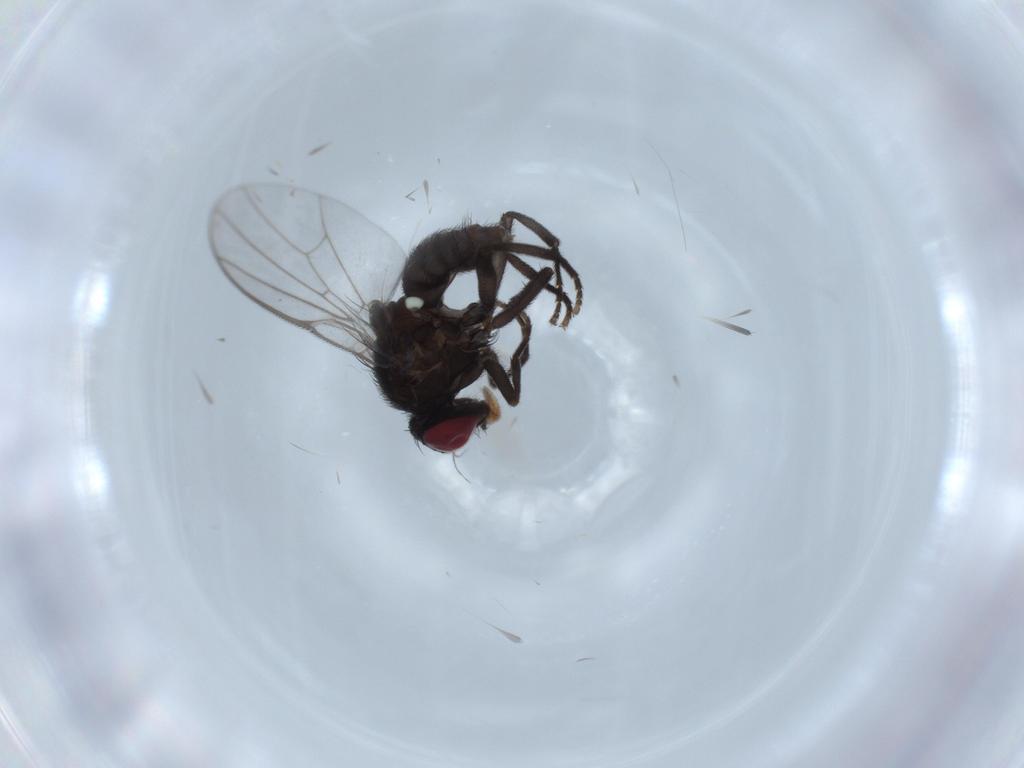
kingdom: Animalia
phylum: Arthropoda
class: Insecta
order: Diptera
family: Agromyzidae
